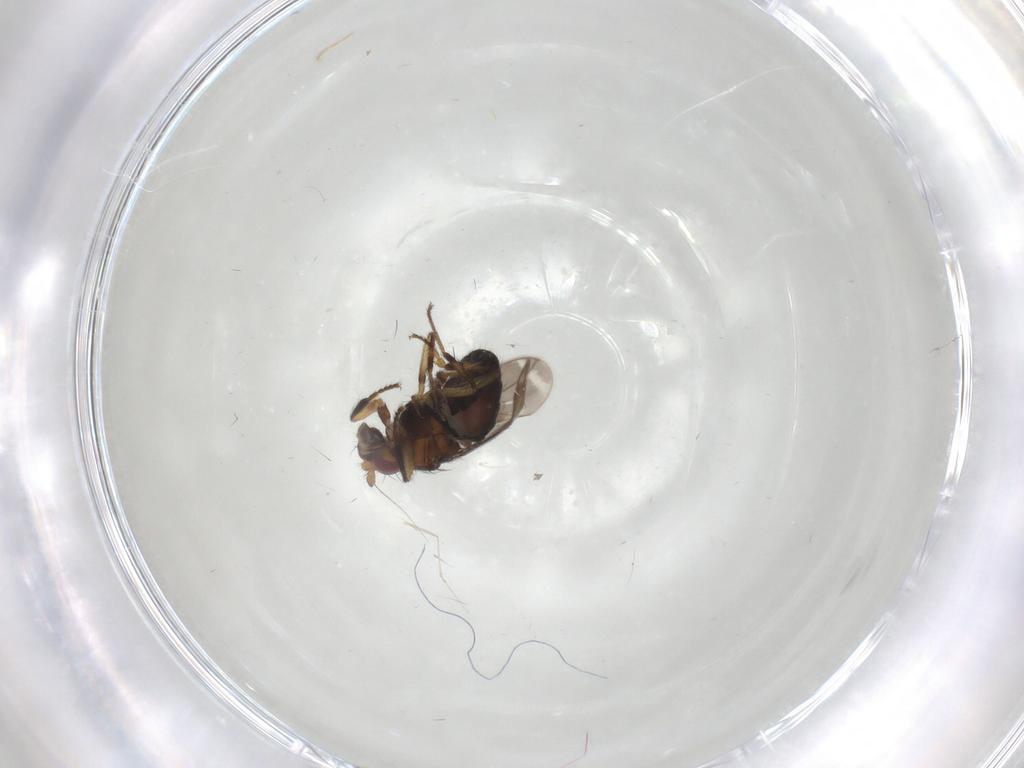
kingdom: Animalia
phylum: Arthropoda
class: Insecta
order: Diptera
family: Sphaeroceridae
